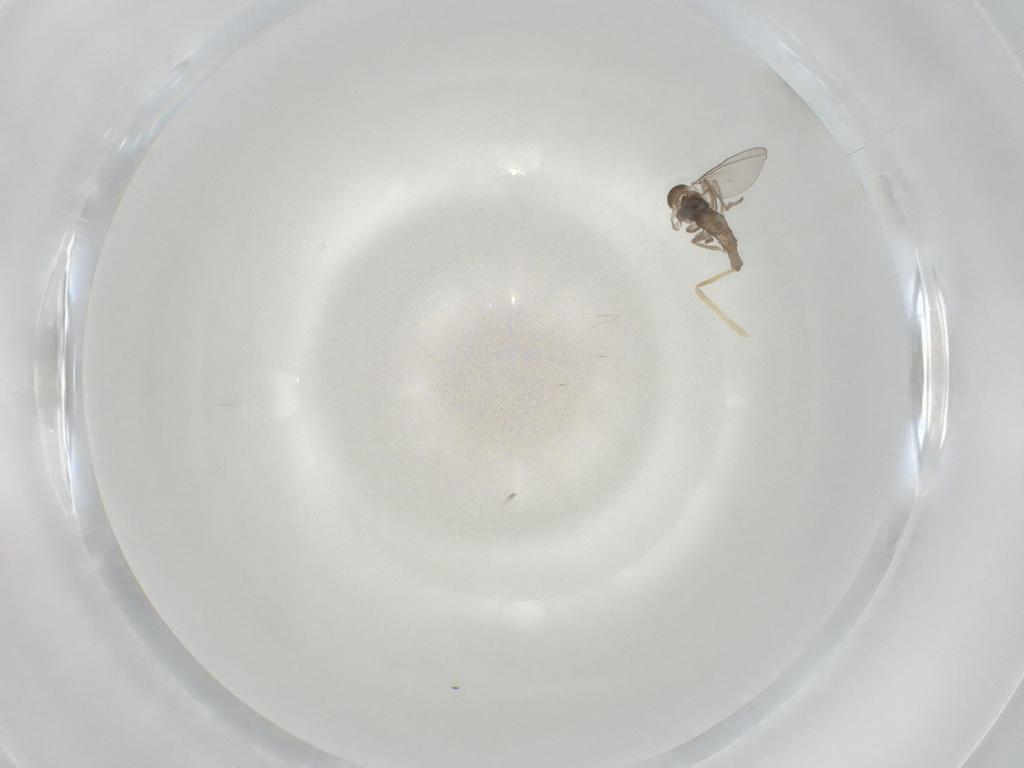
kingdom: Animalia
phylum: Arthropoda
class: Insecta
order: Diptera
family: Cecidomyiidae
